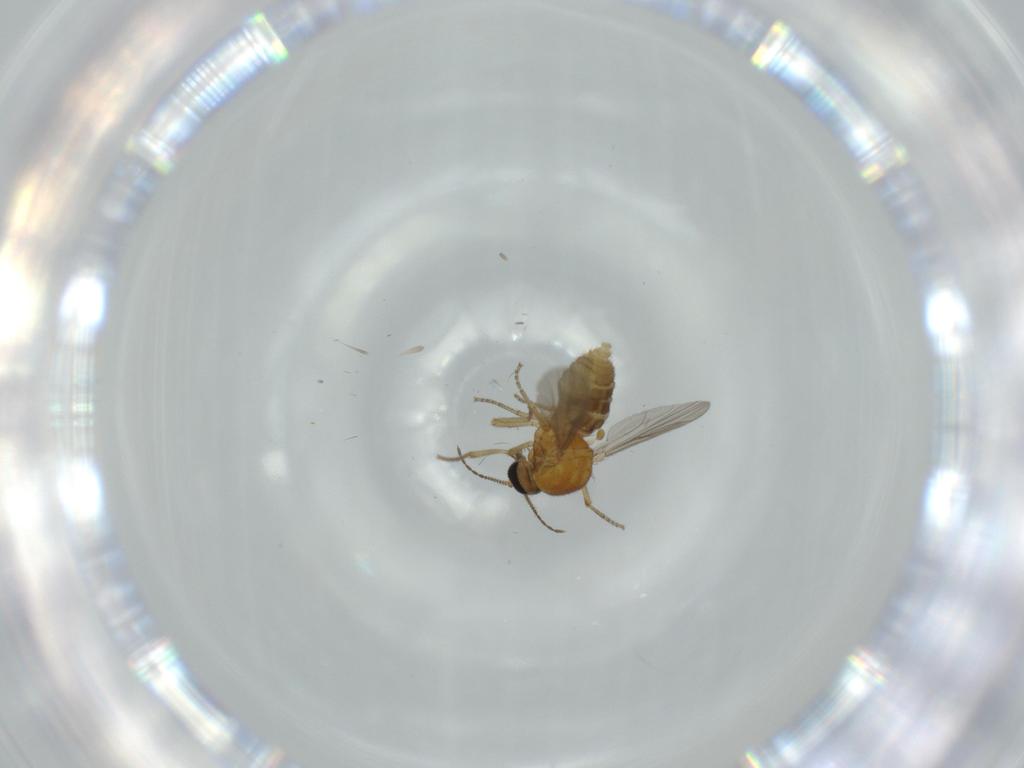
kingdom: Animalia
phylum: Arthropoda
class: Insecta
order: Diptera
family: Ceratopogonidae
